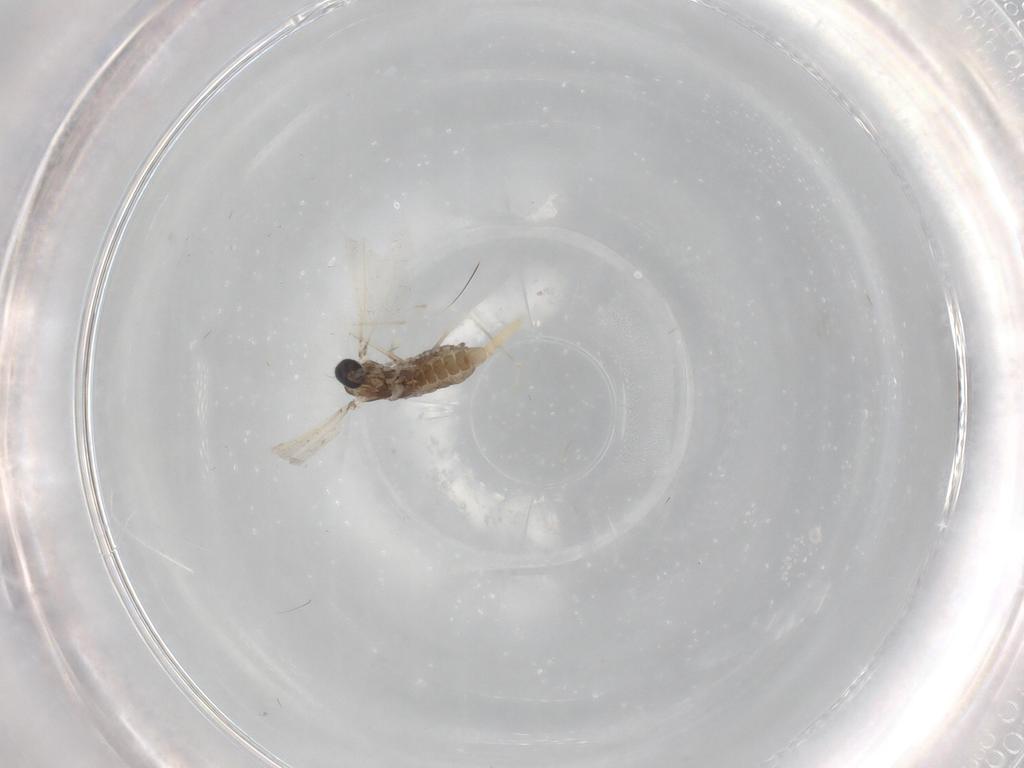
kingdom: Animalia
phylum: Arthropoda
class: Insecta
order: Diptera
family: Cecidomyiidae
